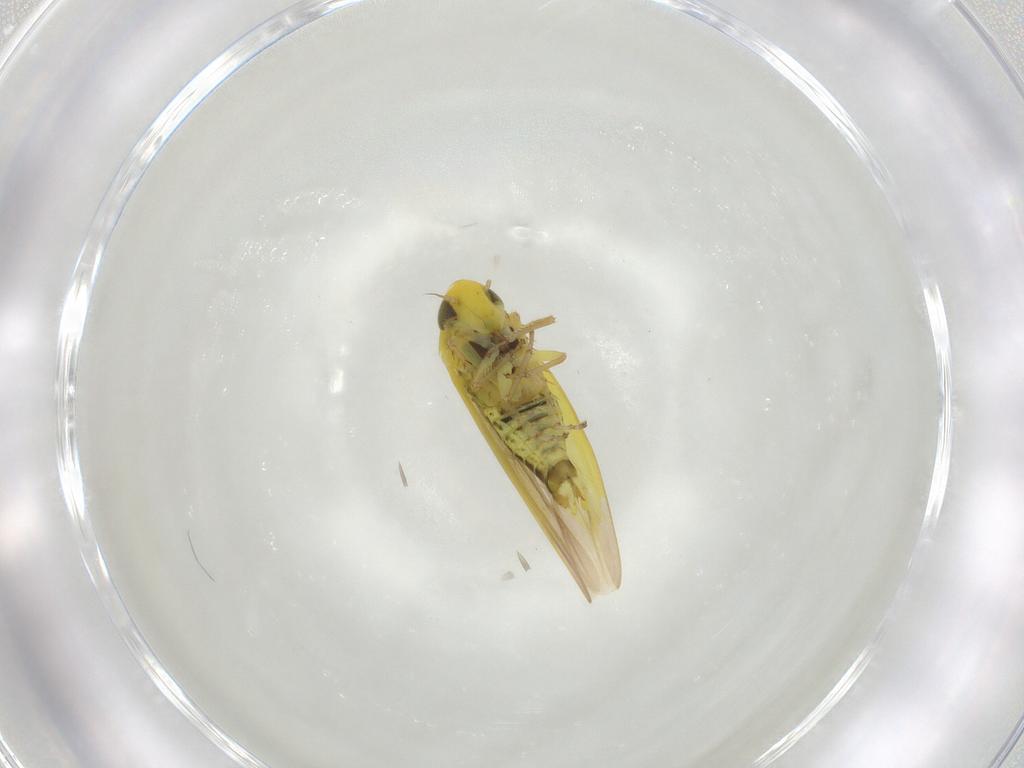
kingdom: Animalia
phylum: Arthropoda
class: Insecta
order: Hemiptera
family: Cicadellidae
